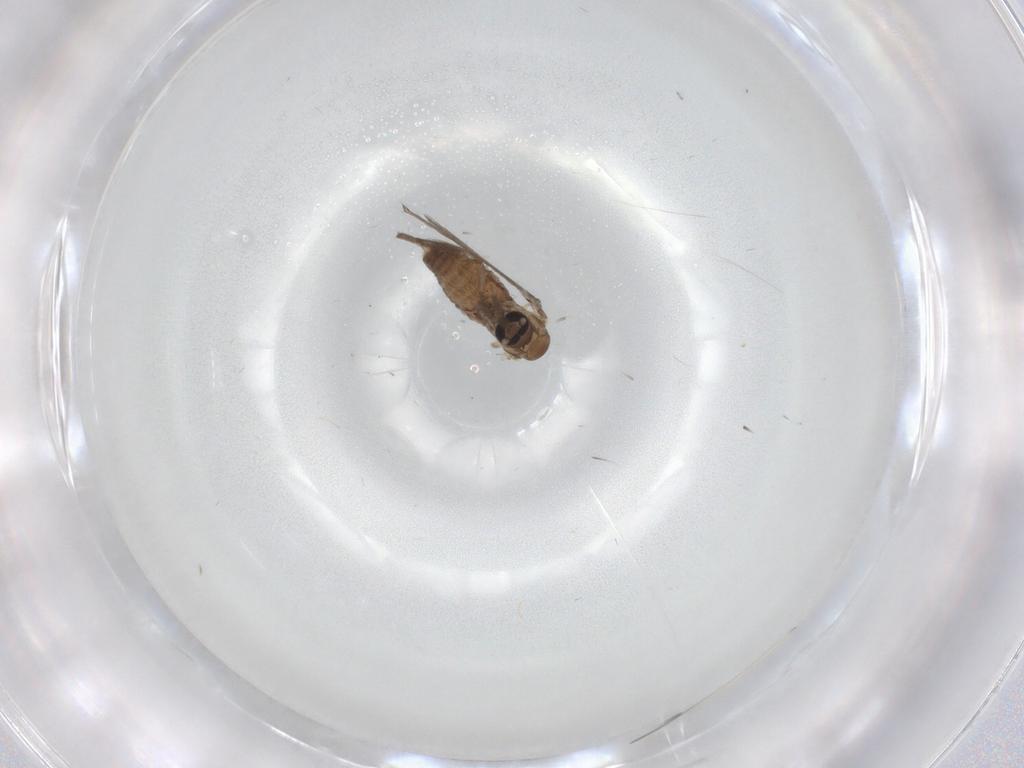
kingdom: Animalia
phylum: Arthropoda
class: Insecta
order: Diptera
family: Psychodidae
